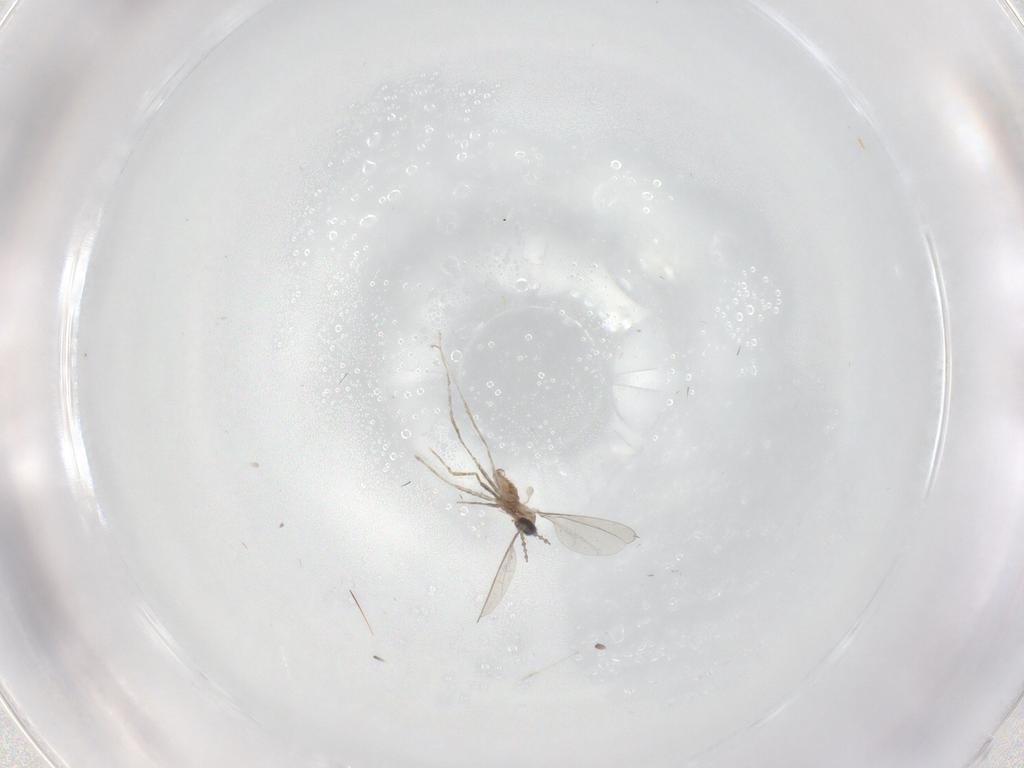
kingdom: Animalia
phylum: Arthropoda
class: Insecta
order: Diptera
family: Cecidomyiidae
